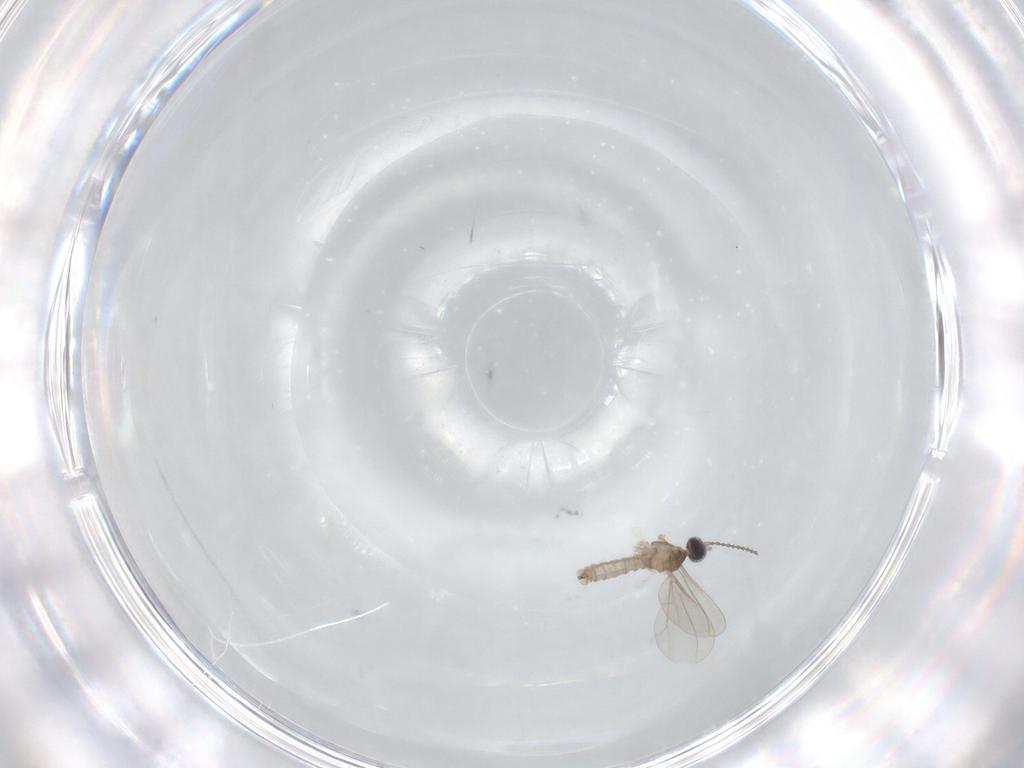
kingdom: Animalia
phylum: Arthropoda
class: Insecta
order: Diptera
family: Cecidomyiidae
